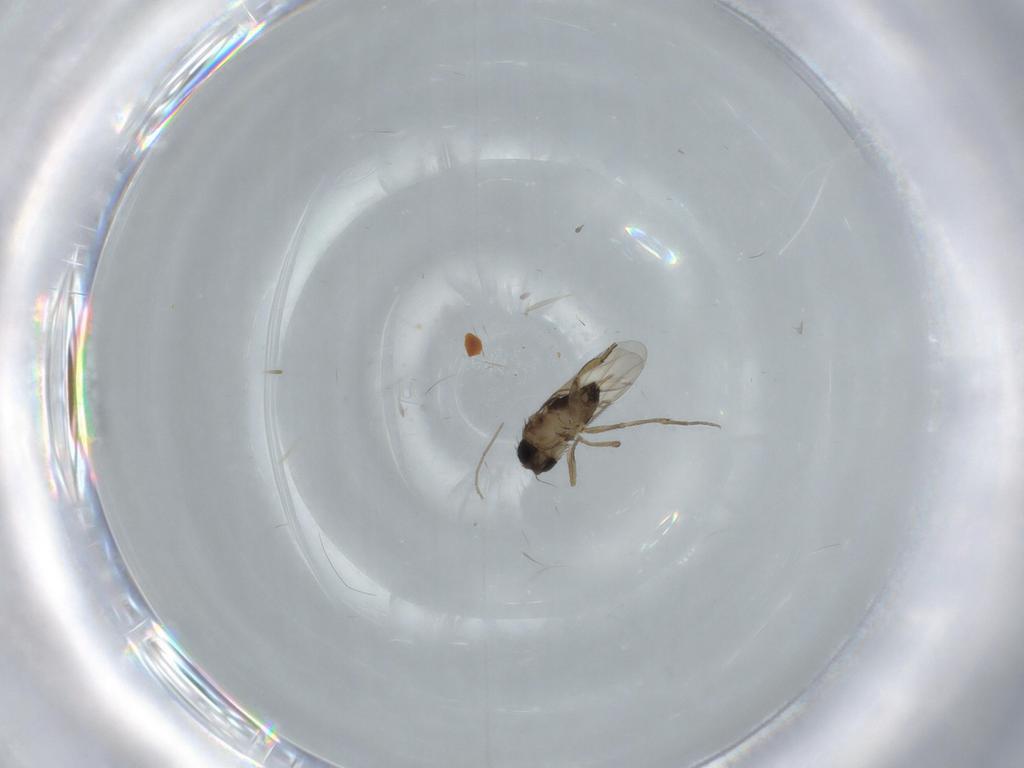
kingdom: Animalia
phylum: Arthropoda
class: Insecta
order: Diptera
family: Phoridae
